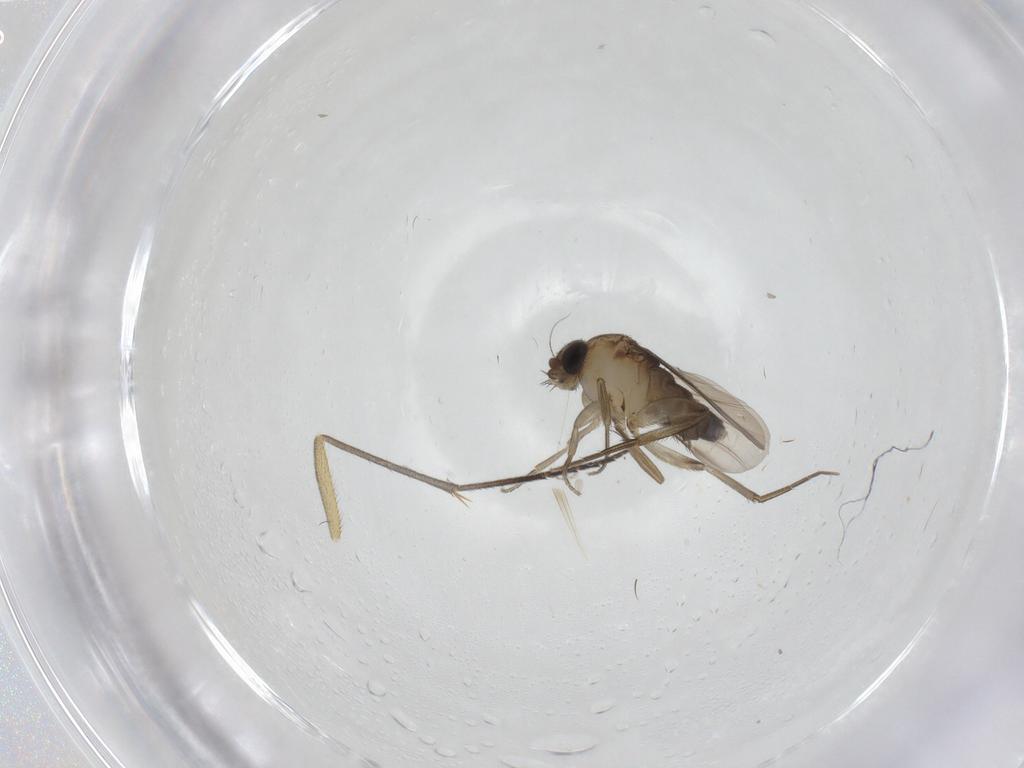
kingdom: Animalia
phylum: Arthropoda
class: Insecta
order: Diptera
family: Phoridae
